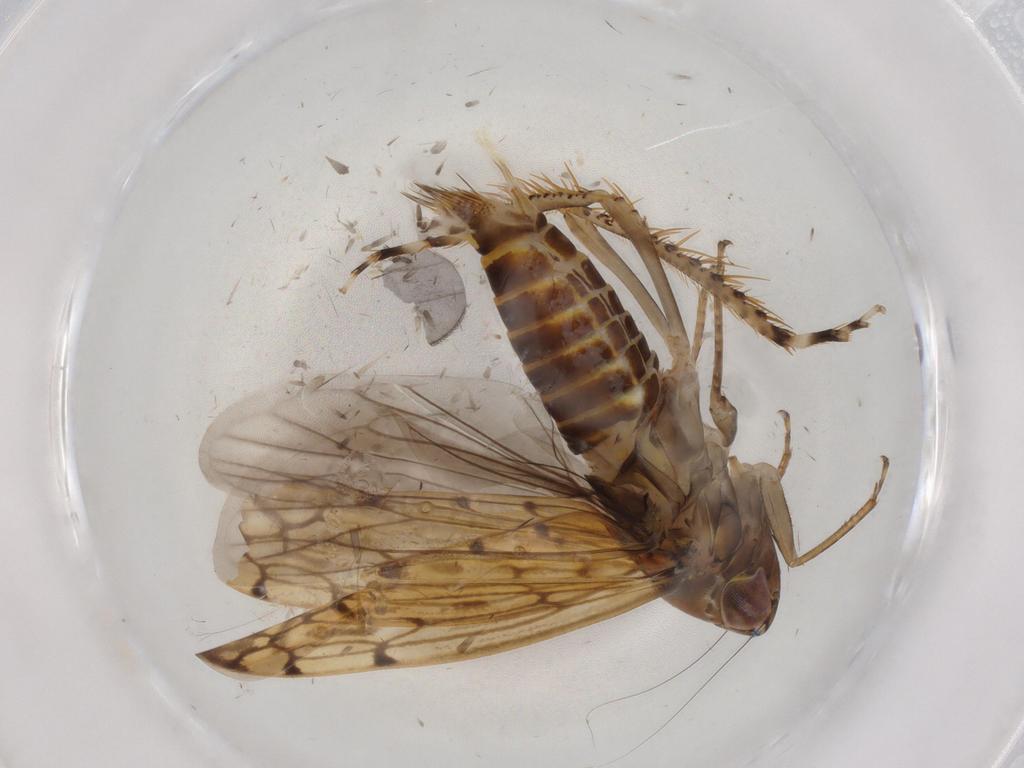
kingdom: Animalia
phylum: Arthropoda
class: Insecta
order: Hemiptera
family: Cicadellidae
